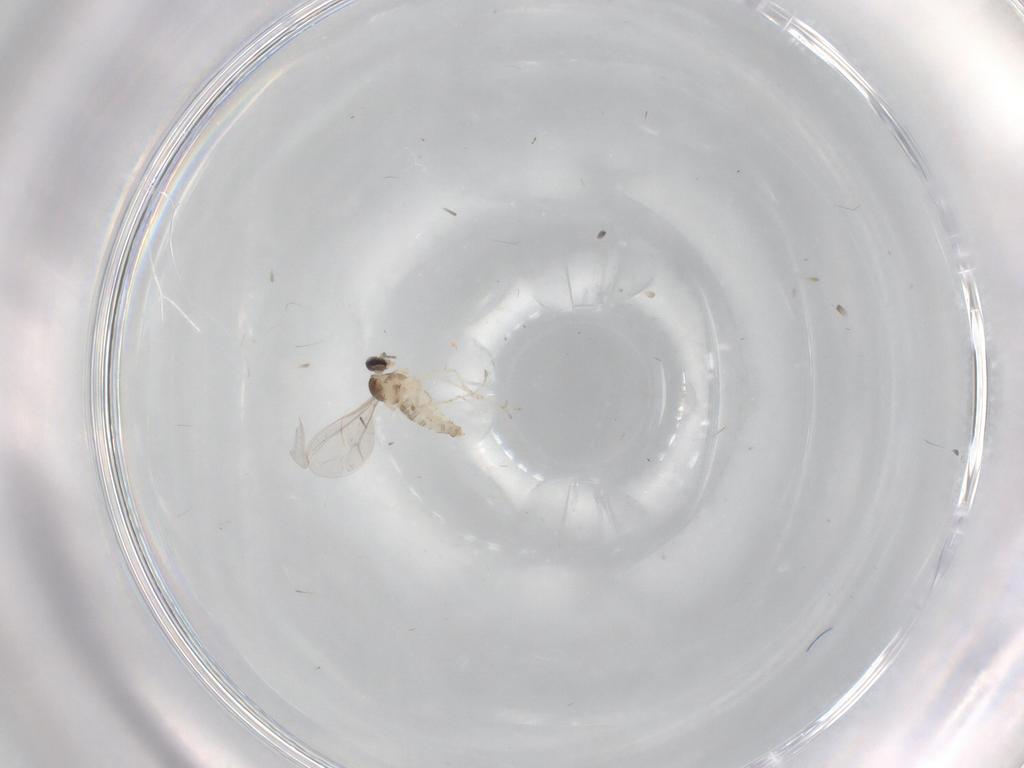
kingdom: Animalia
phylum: Arthropoda
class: Insecta
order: Diptera
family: Cecidomyiidae
